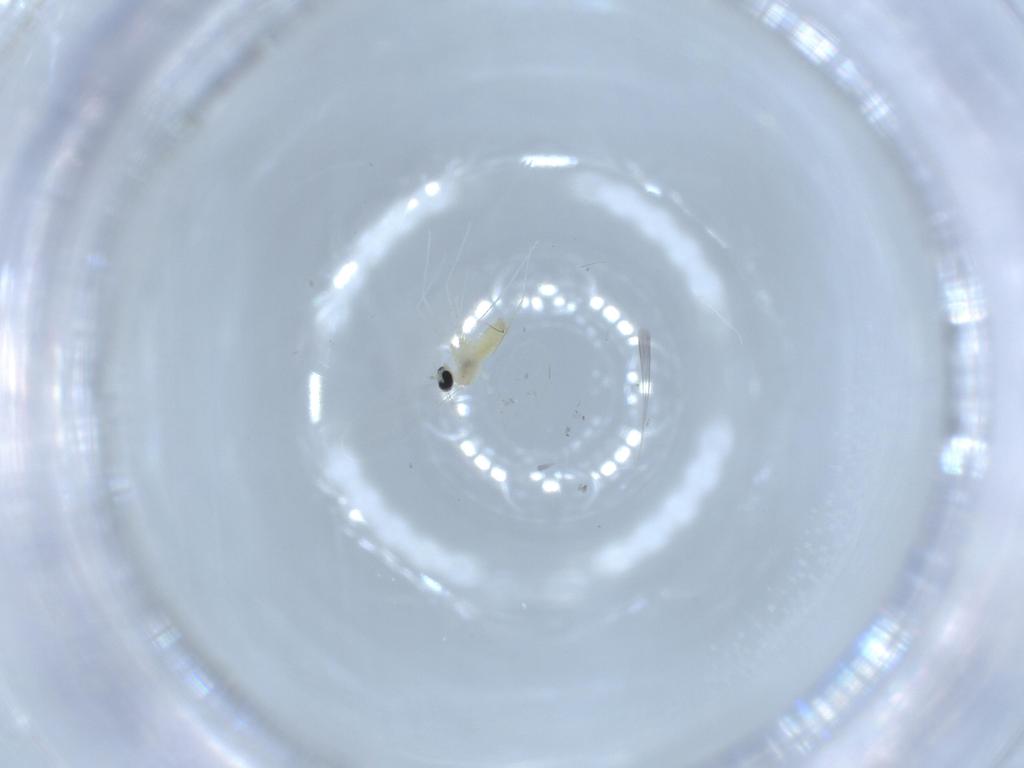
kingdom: Animalia
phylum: Arthropoda
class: Insecta
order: Diptera
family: Cecidomyiidae
